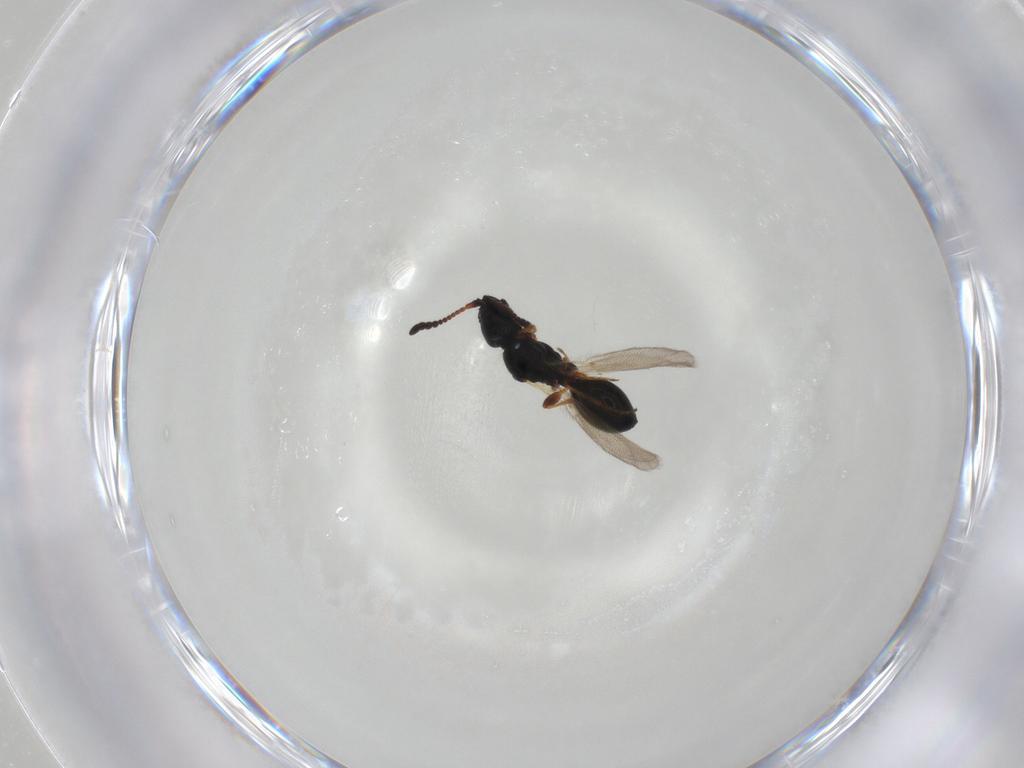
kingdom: Animalia
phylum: Arthropoda
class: Insecta
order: Hymenoptera
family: Diapriidae
